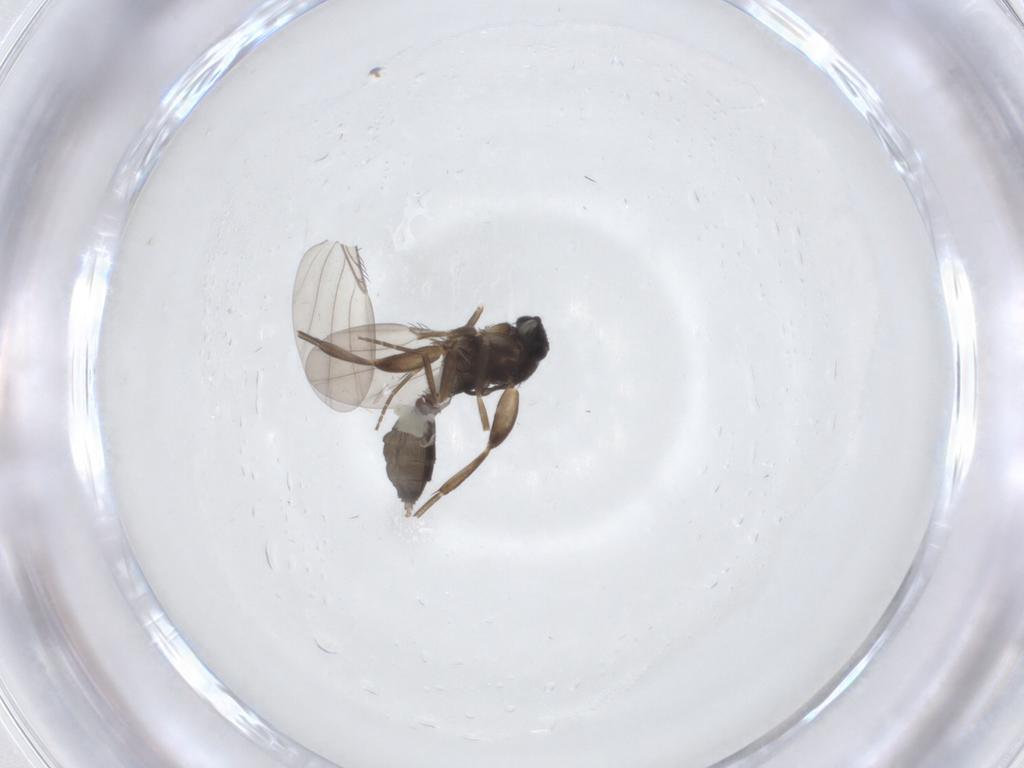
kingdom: Animalia
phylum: Arthropoda
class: Insecta
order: Diptera
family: Phoridae
